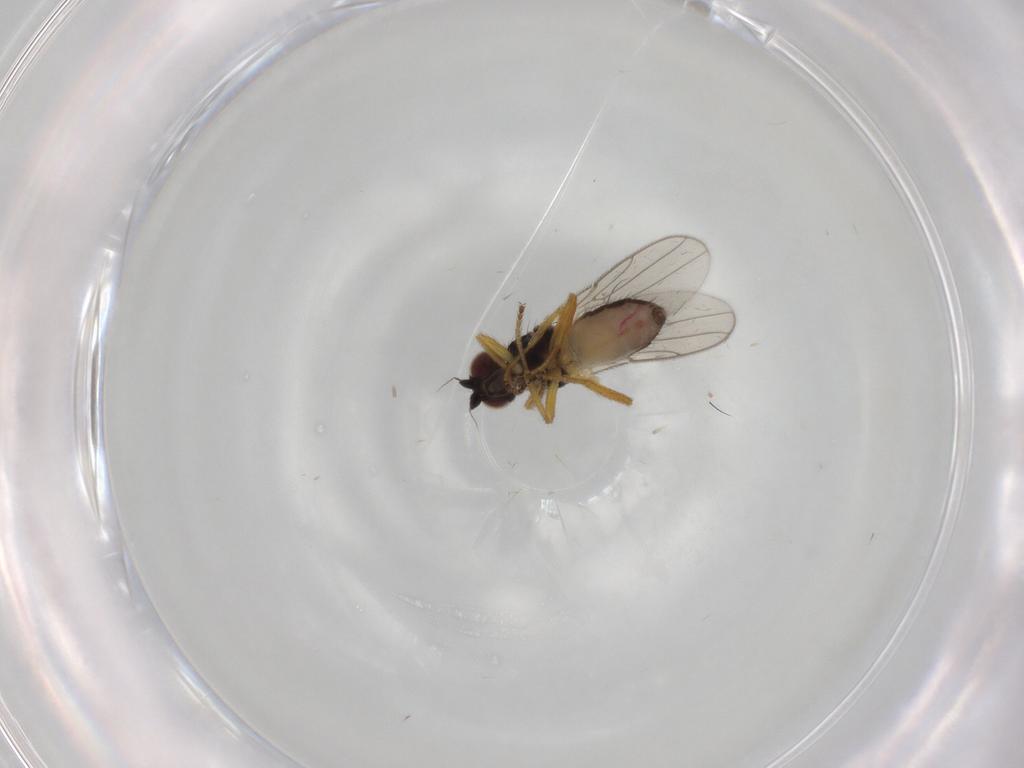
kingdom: Animalia
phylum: Arthropoda
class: Insecta
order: Diptera
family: Chloropidae
